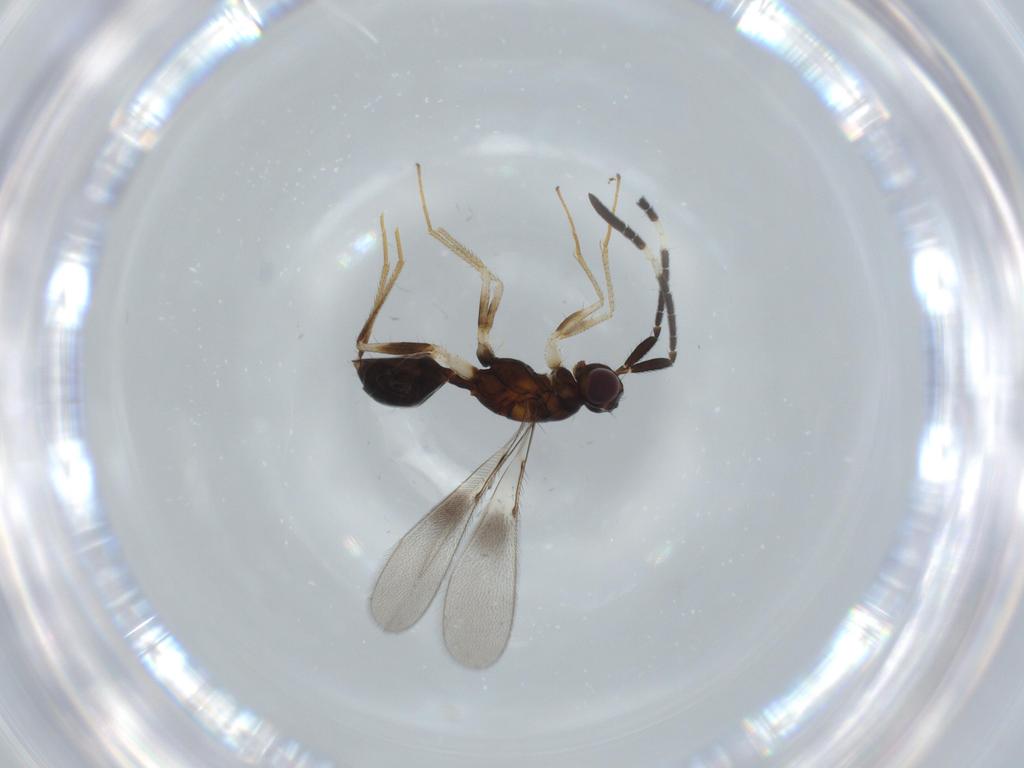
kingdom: Animalia
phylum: Arthropoda
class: Insecta
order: Hymenoptera
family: Mymaridae
